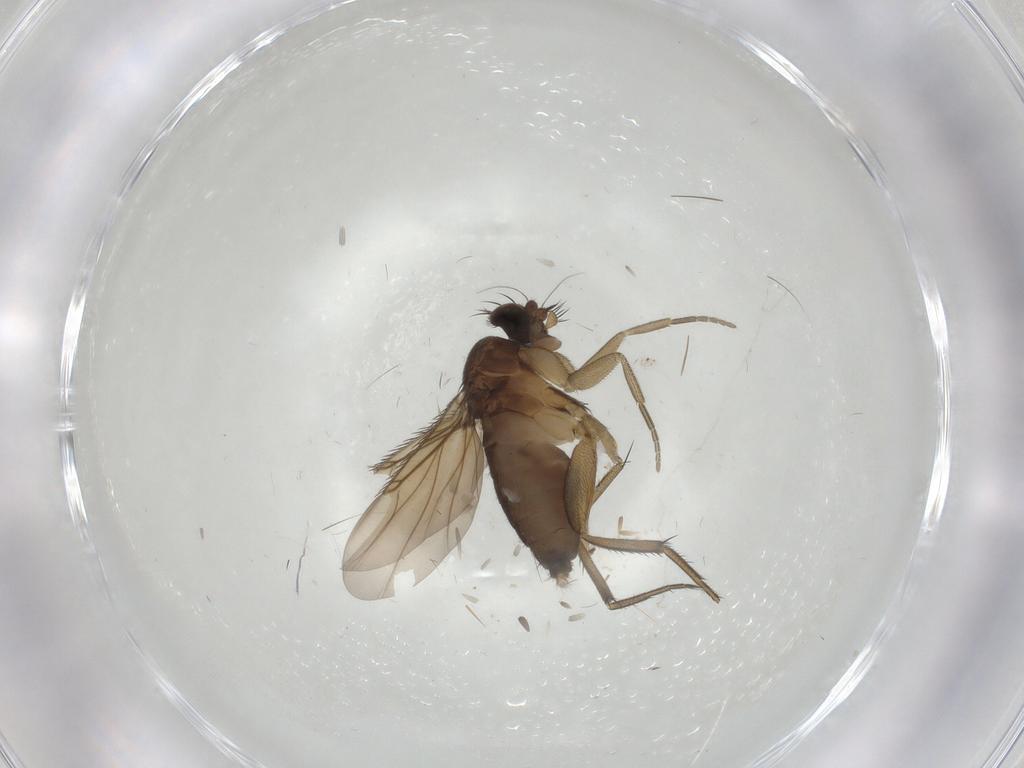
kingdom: Animalia
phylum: Arthropoda
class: Insecta
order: Diptera
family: Phoridae
